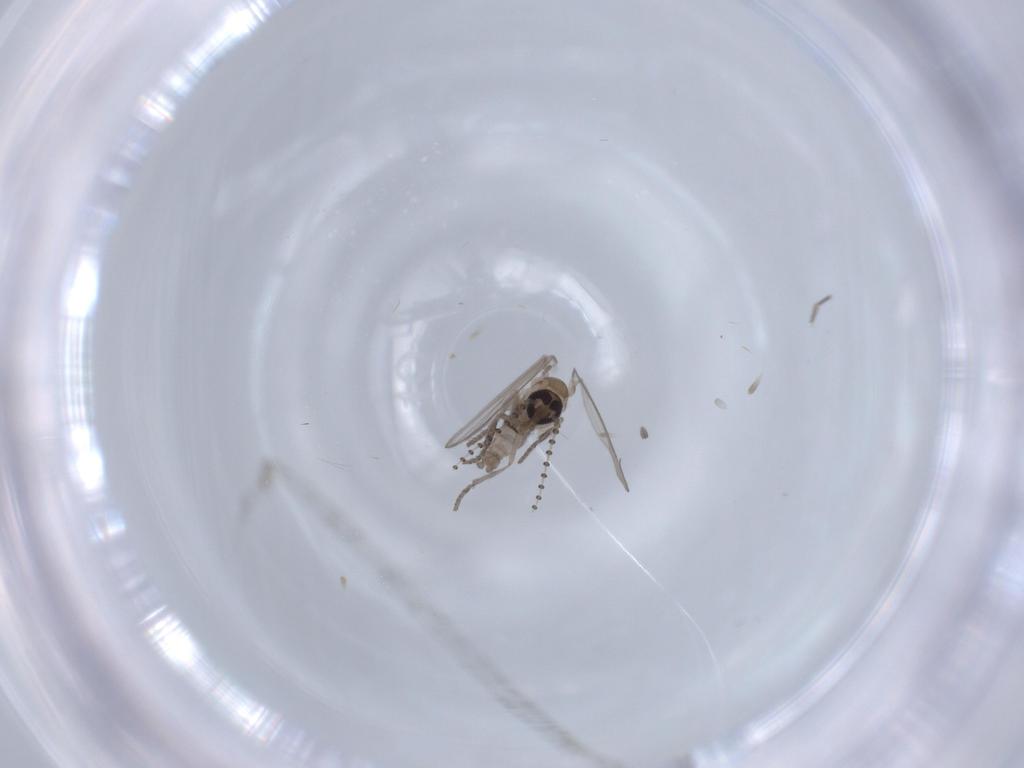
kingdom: Animalia
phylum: Arthropoda
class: Insecta
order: Diptera
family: Psychodidae
